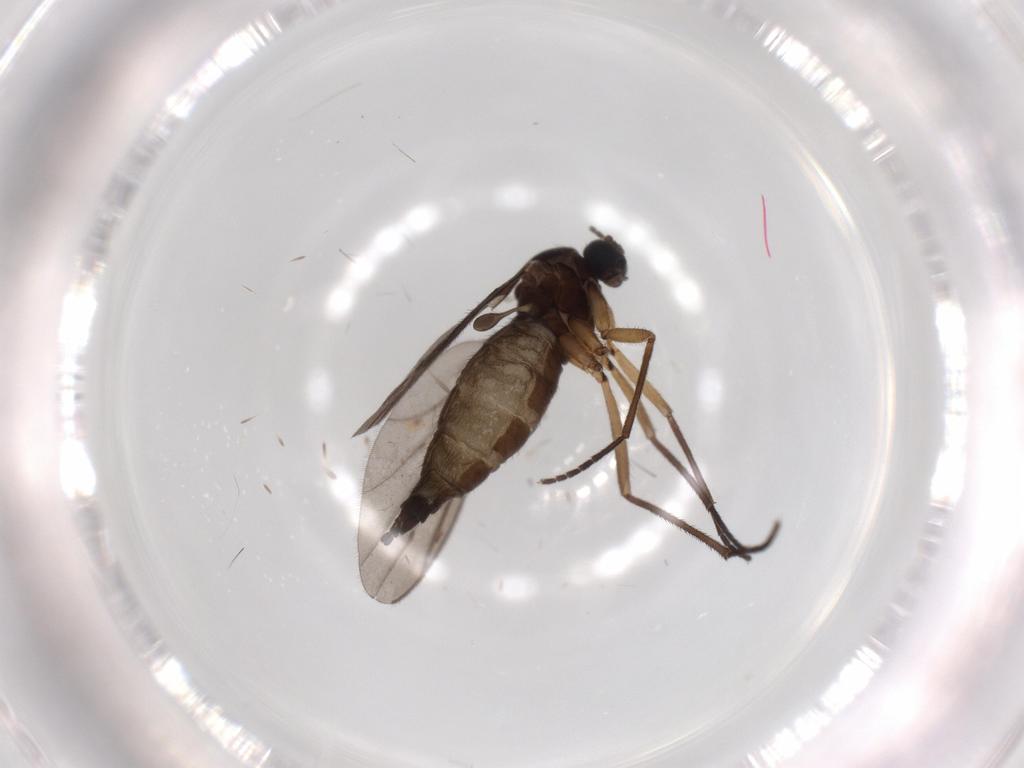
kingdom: Animalia
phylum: Arthropoda
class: Insecta
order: Diptera
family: Sciaridae
